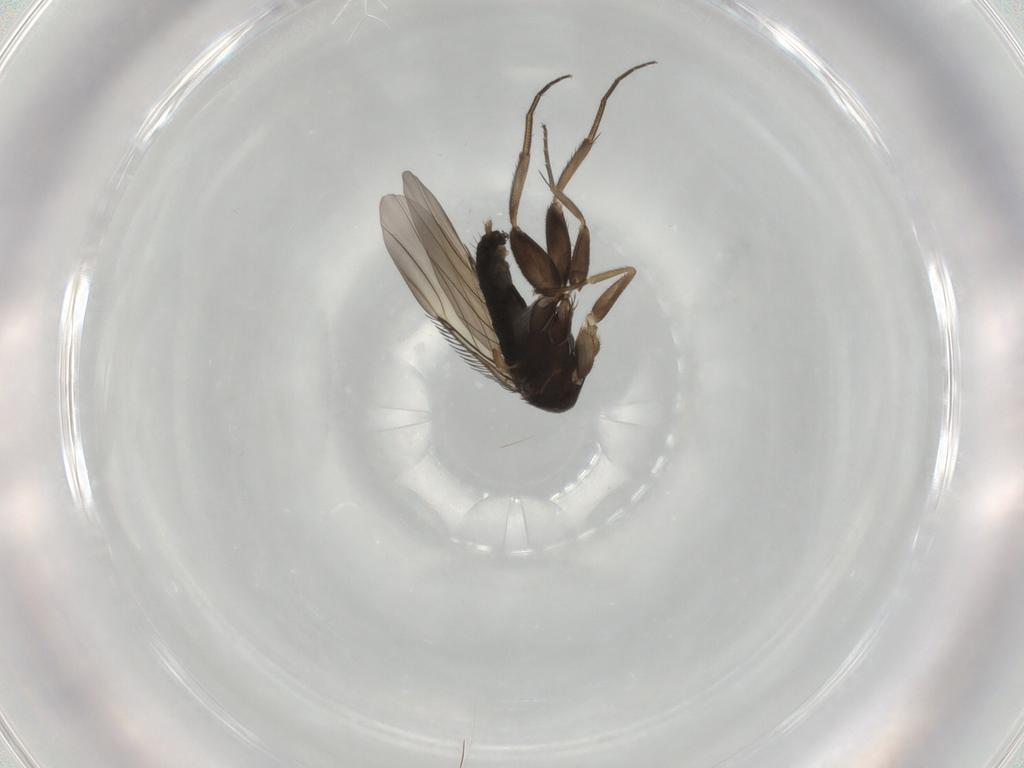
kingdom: Animalia
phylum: Arthropoda
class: Insecta
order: Diptera
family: Phoridae
